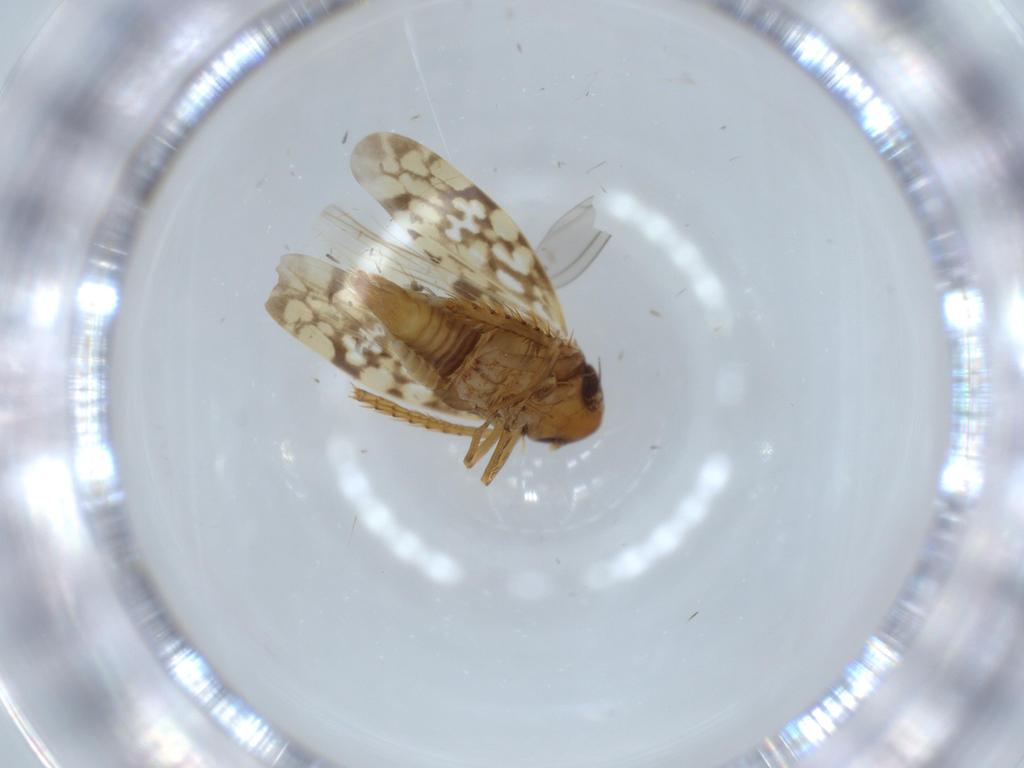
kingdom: Animalia
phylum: Arthropoda
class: Insecta
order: Hemiptera
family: Cicadellidae
